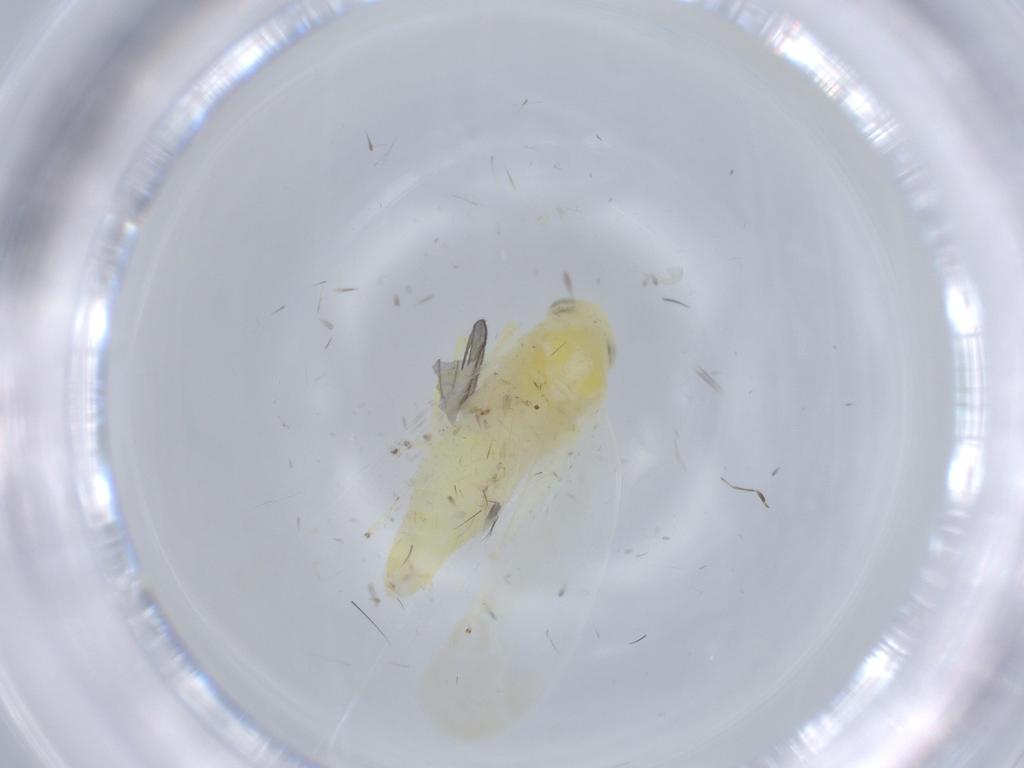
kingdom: Animalia
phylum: Arthropoda
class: Insecta
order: Hemiptera
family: Cicadellidae
